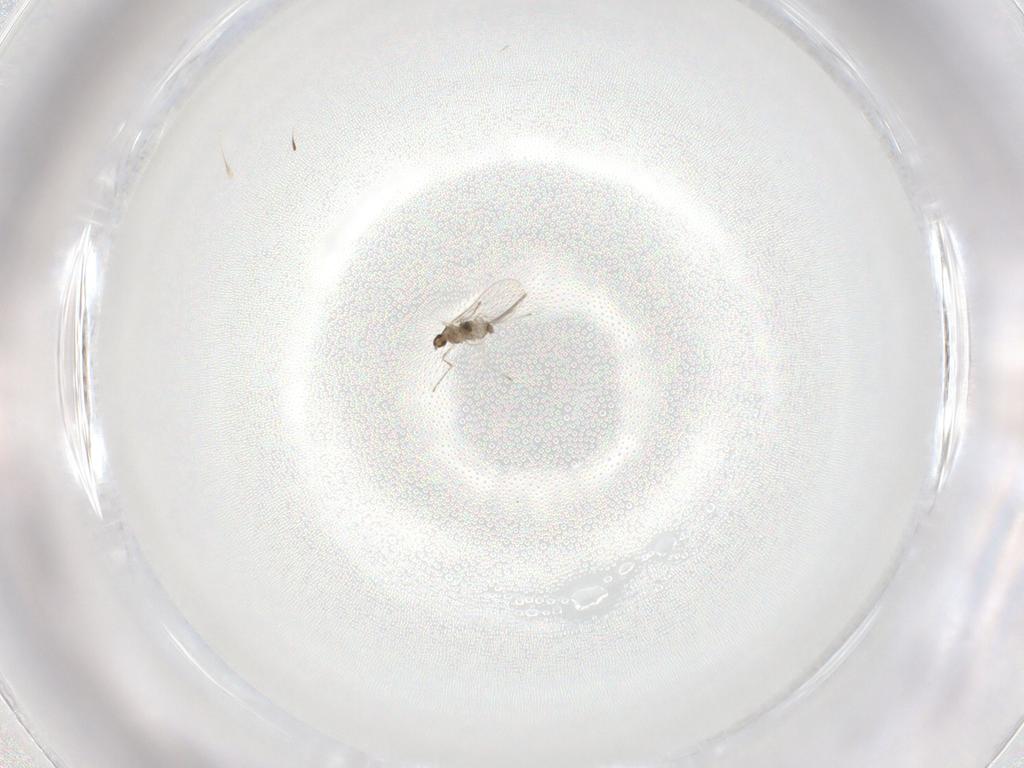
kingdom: Animalia
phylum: Arthropoda
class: Insecta
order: Diptera
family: Cecidomyiidae
